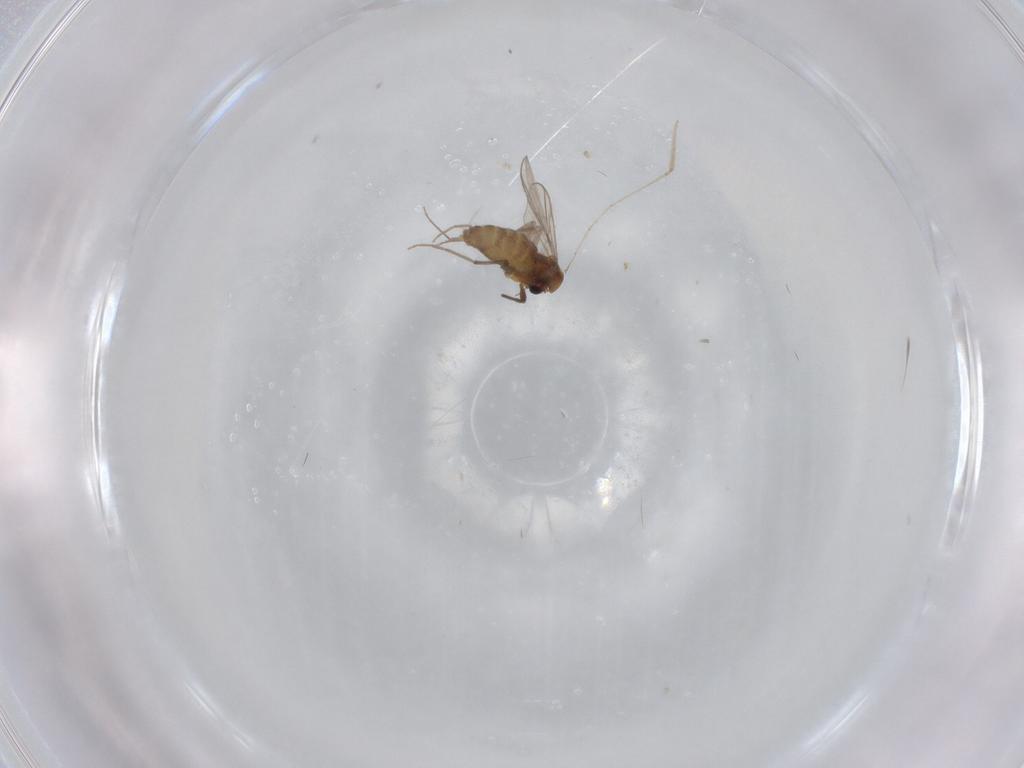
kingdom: Animalia
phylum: Arthropoda
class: Insecta
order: Diptera
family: Chironomidae
